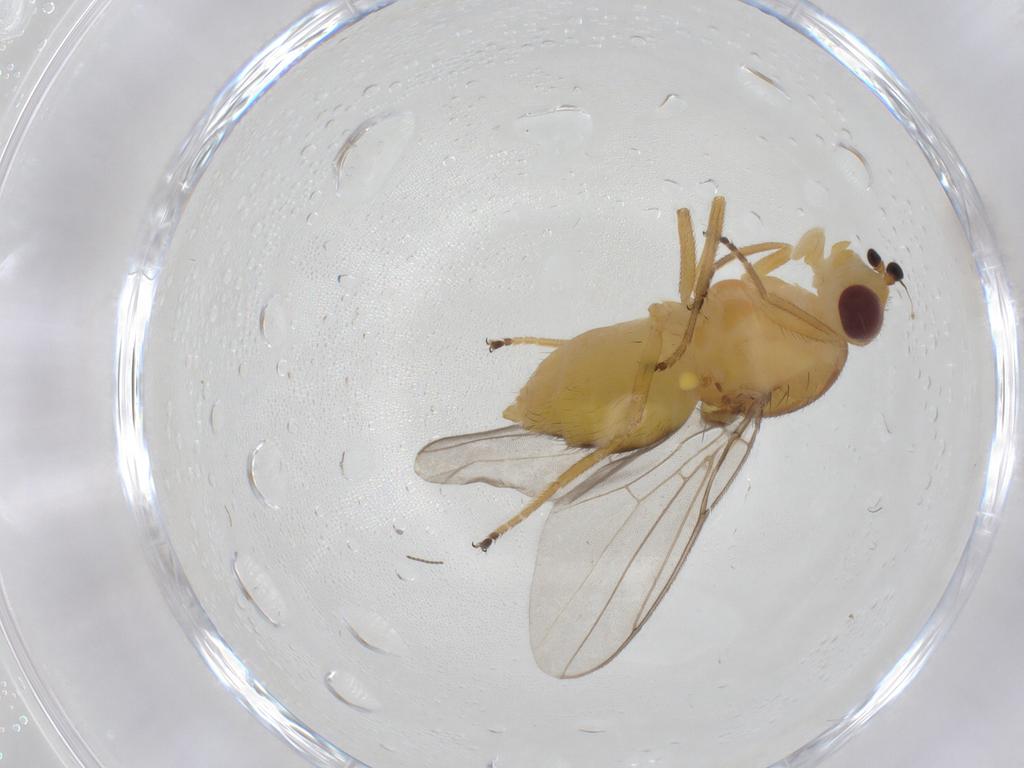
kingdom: Animalia
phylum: Arthropoda
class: Insecta
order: Diptera
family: Chloropidae
